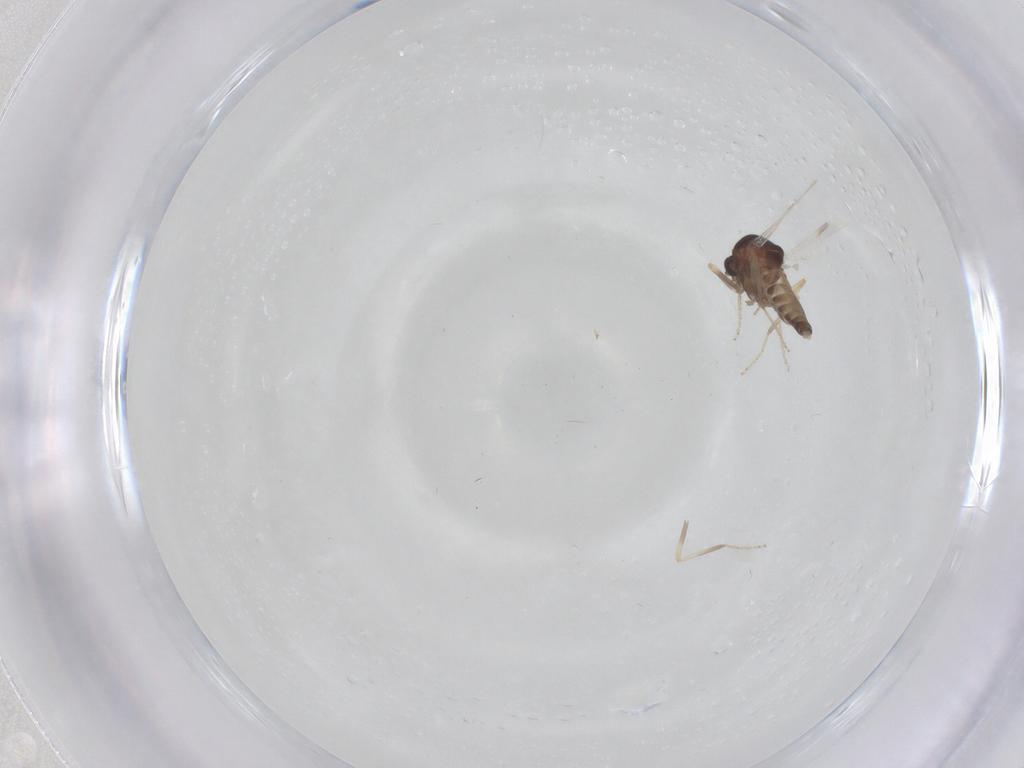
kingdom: Animalia
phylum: Arthropoda
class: Insecta
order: Diptera
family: Ceratopogonidae
